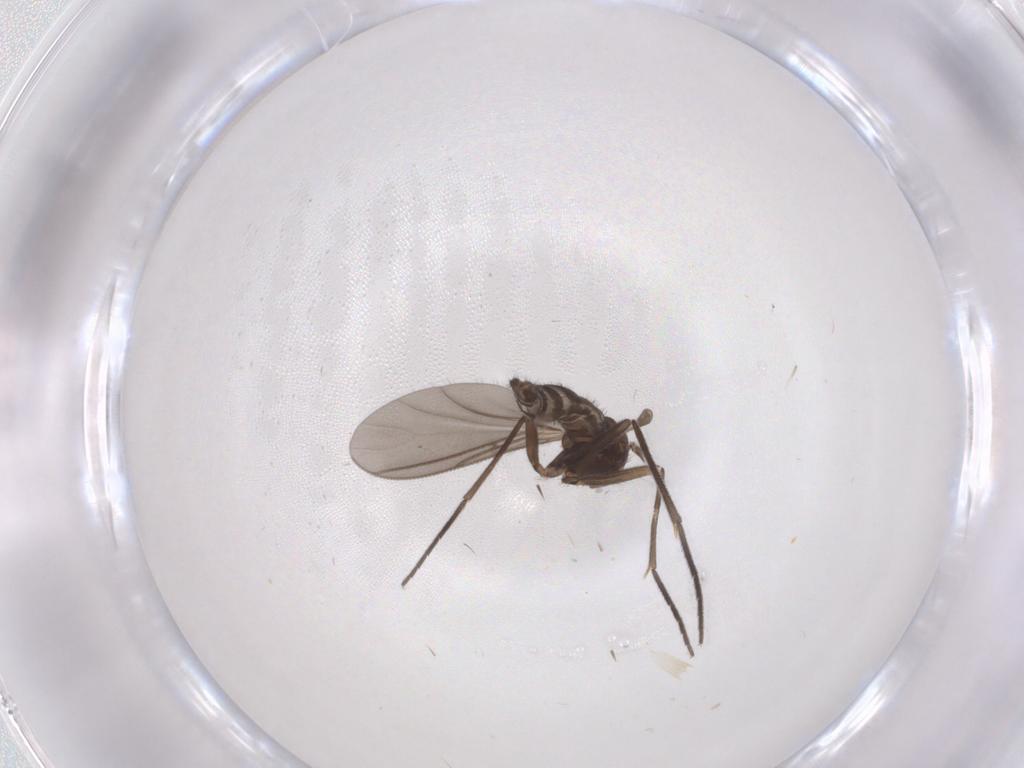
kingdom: Animalia
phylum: Arthropoda
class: Insecta
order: Diptera
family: Sciaridae
